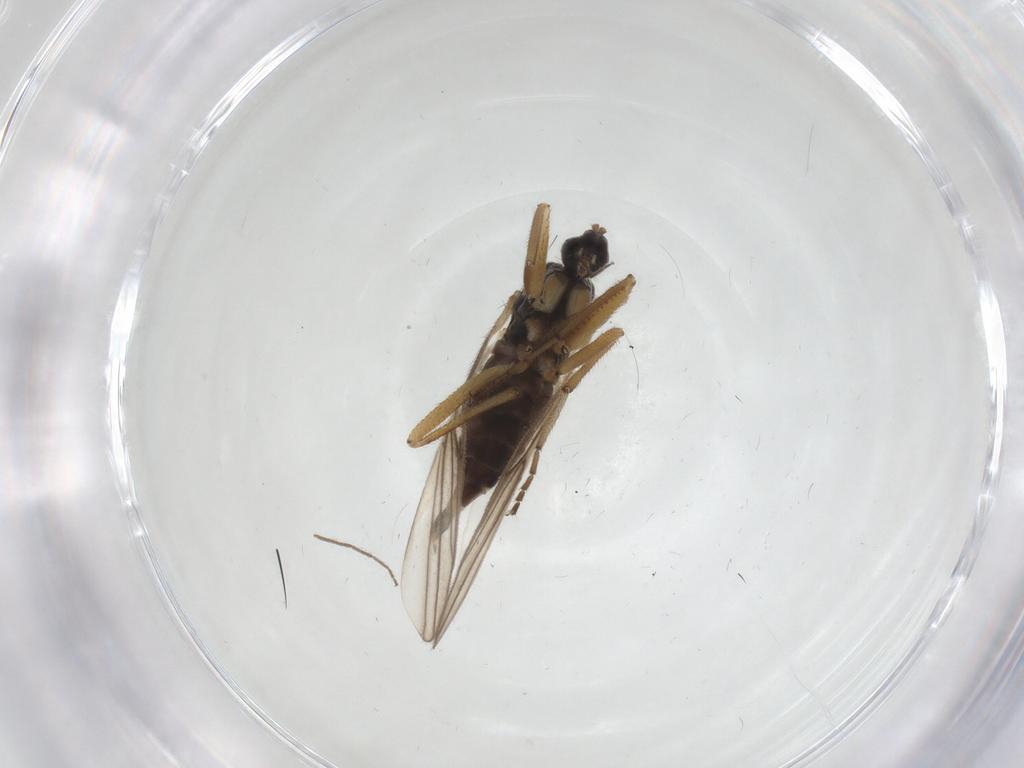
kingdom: Animalia
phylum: Arthropoda
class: Insecta
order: Diptera
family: Hybotidae
